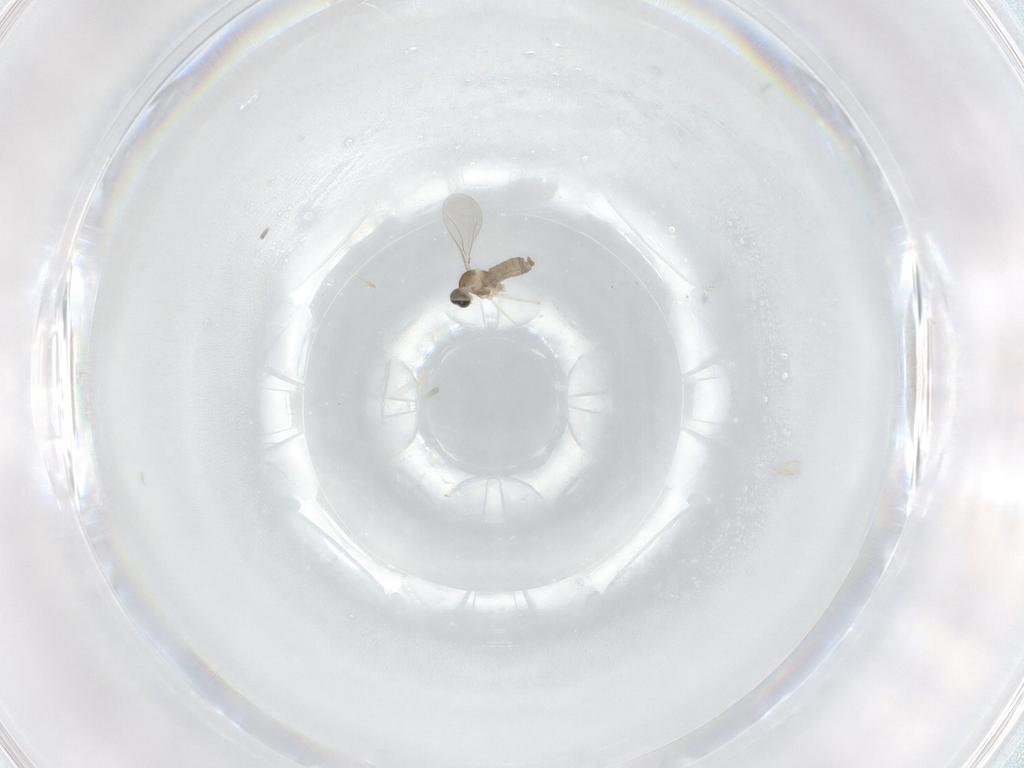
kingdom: Animalia
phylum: Arthropoda
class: Insecta
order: Diptera
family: Cecidomyiidae
